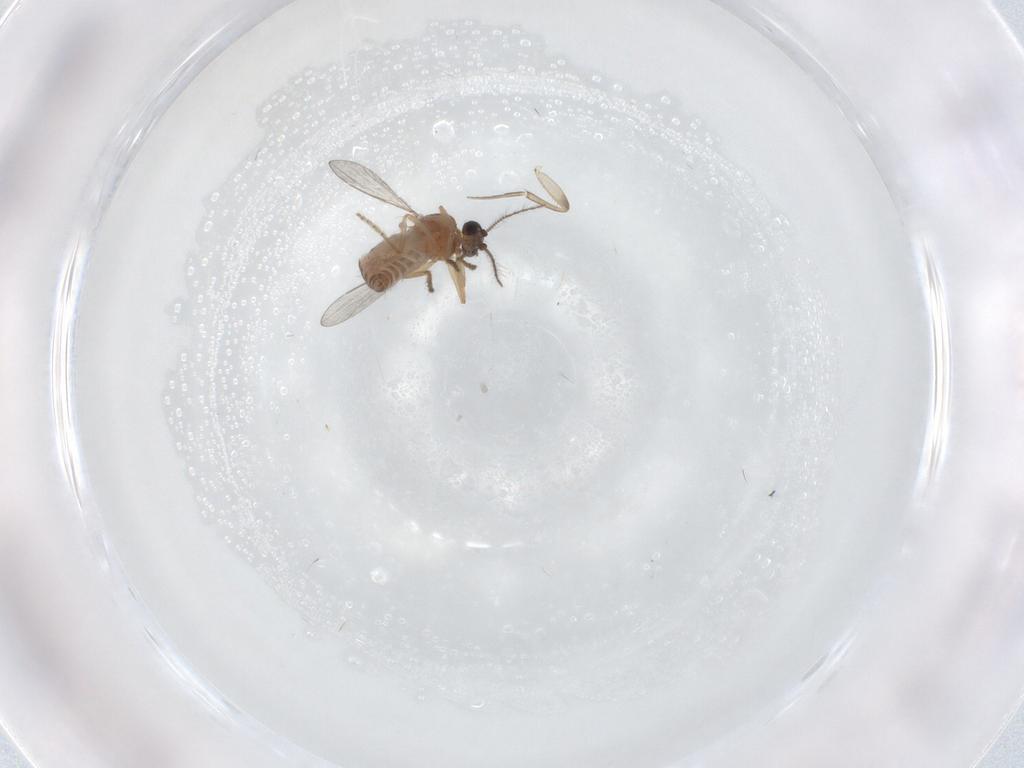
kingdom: Animalia
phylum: Arthropoda
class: Insecta
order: Diptera
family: Ceratopogonidae
